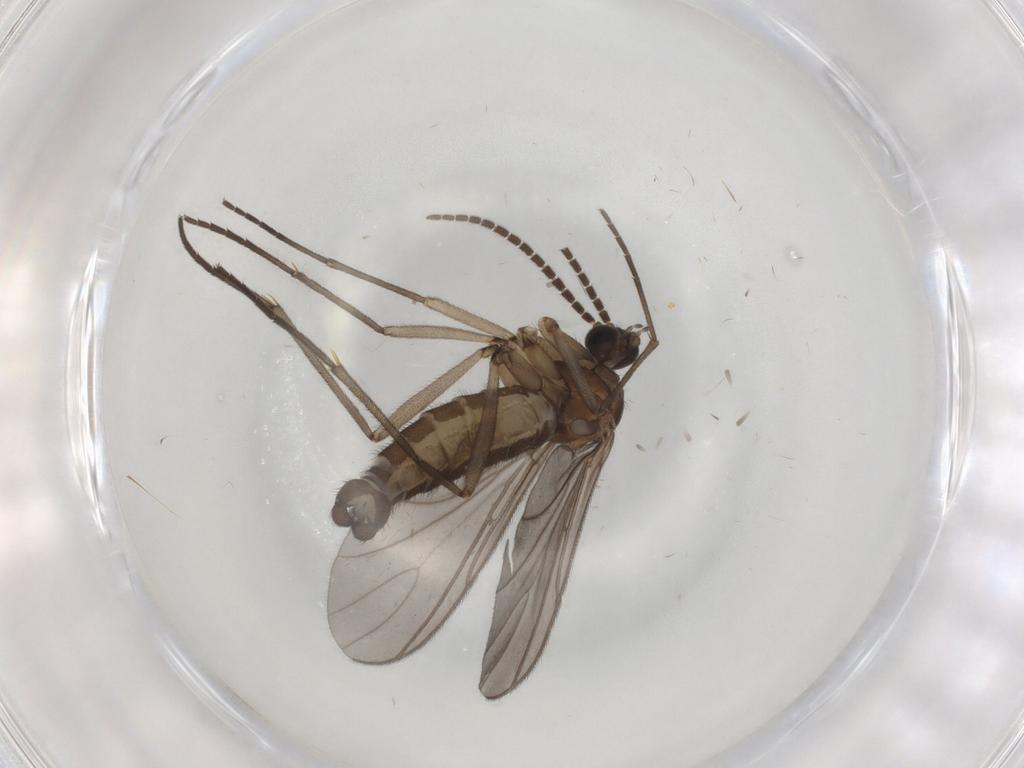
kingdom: Animalia
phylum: Arthropoda
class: Insecta
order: Diptera
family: Sciaridae
